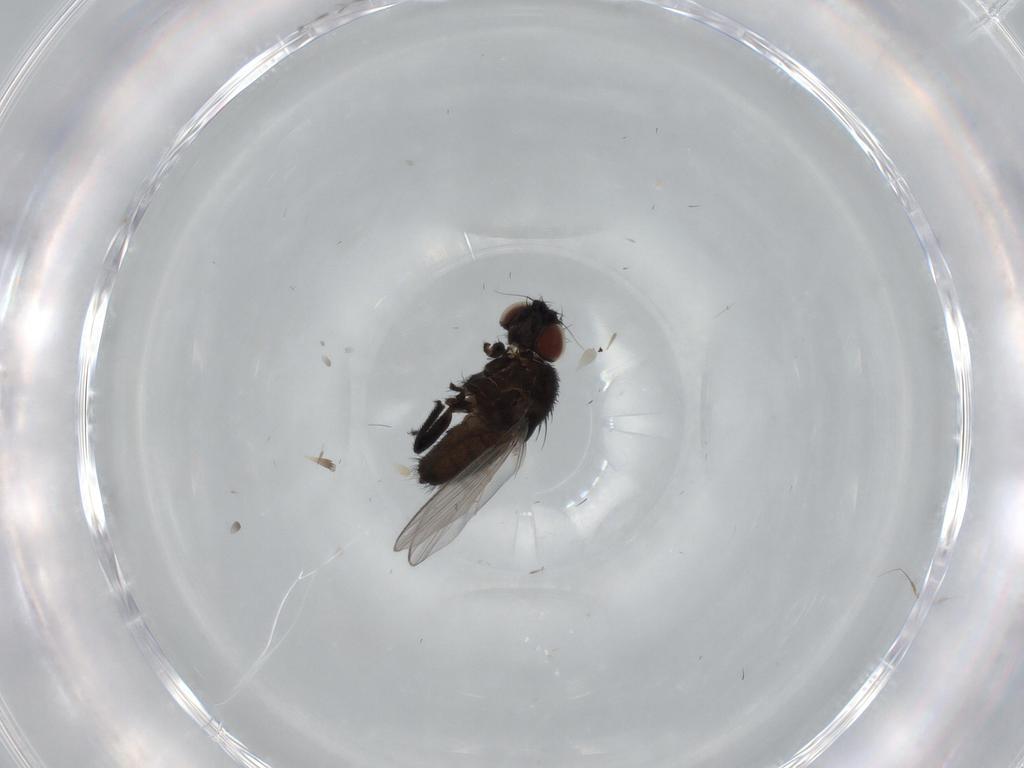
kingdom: Animalia
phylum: Arthropoda
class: Insecta
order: Diptera
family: Milichiidae
